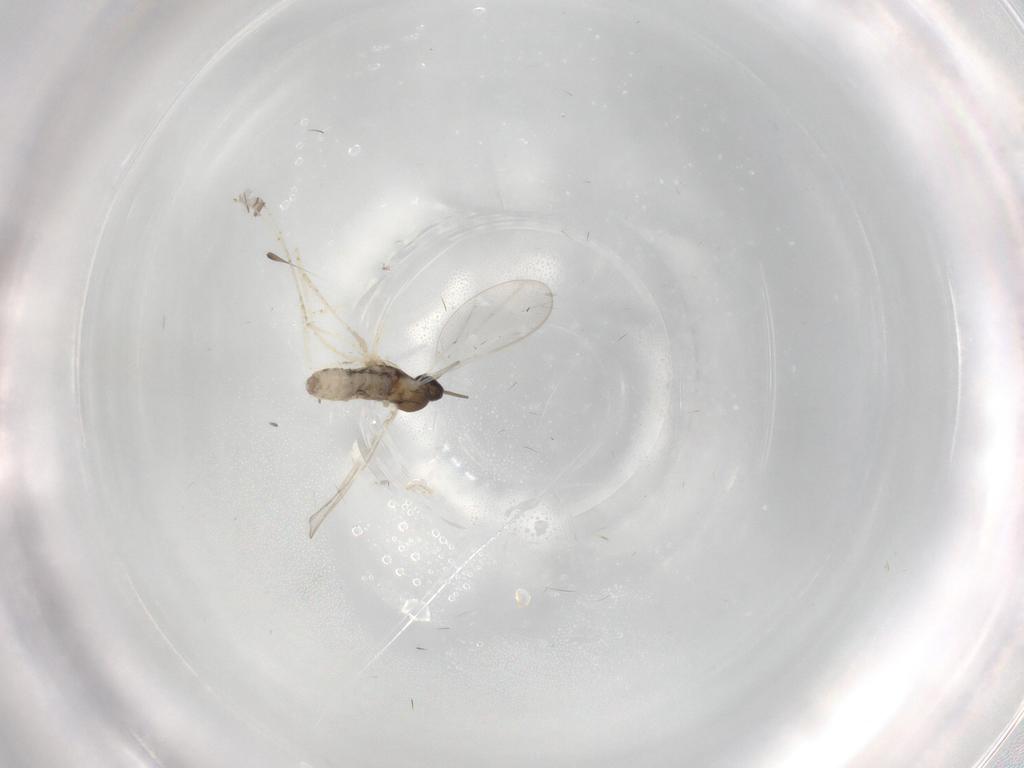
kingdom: Animalia
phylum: Arthropoda
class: Insecta
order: Diptera
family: Cecidomyiidae
